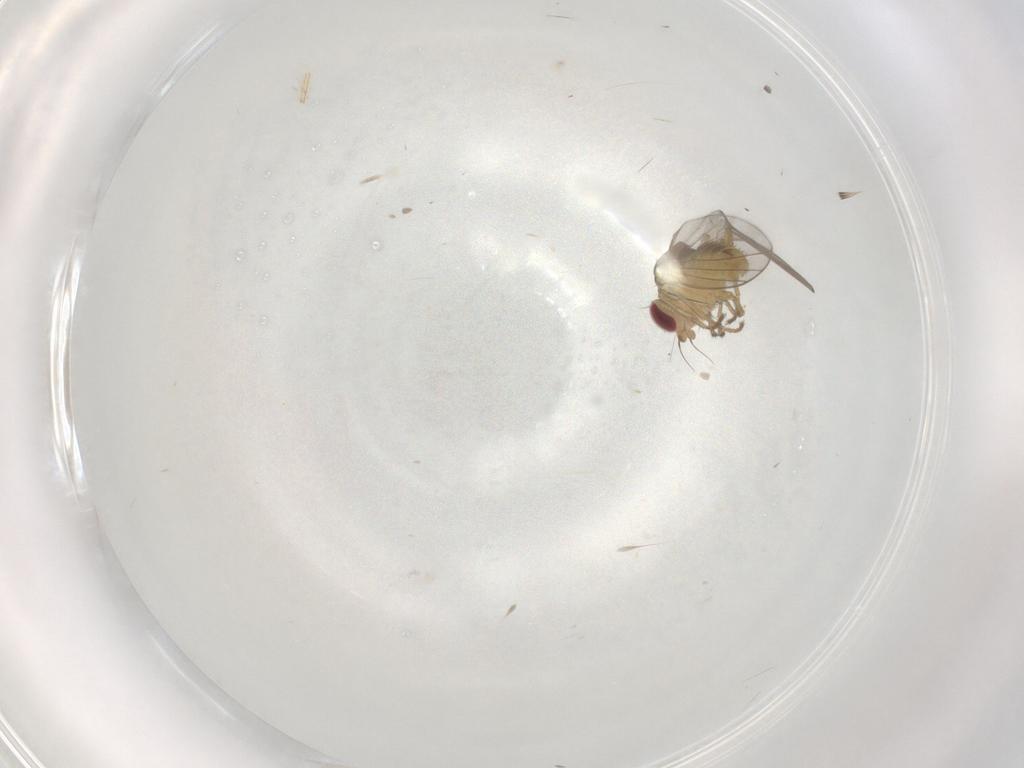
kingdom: Animalia
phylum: Arthropoda
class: Insecta
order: Diptera
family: Agromyzidae
